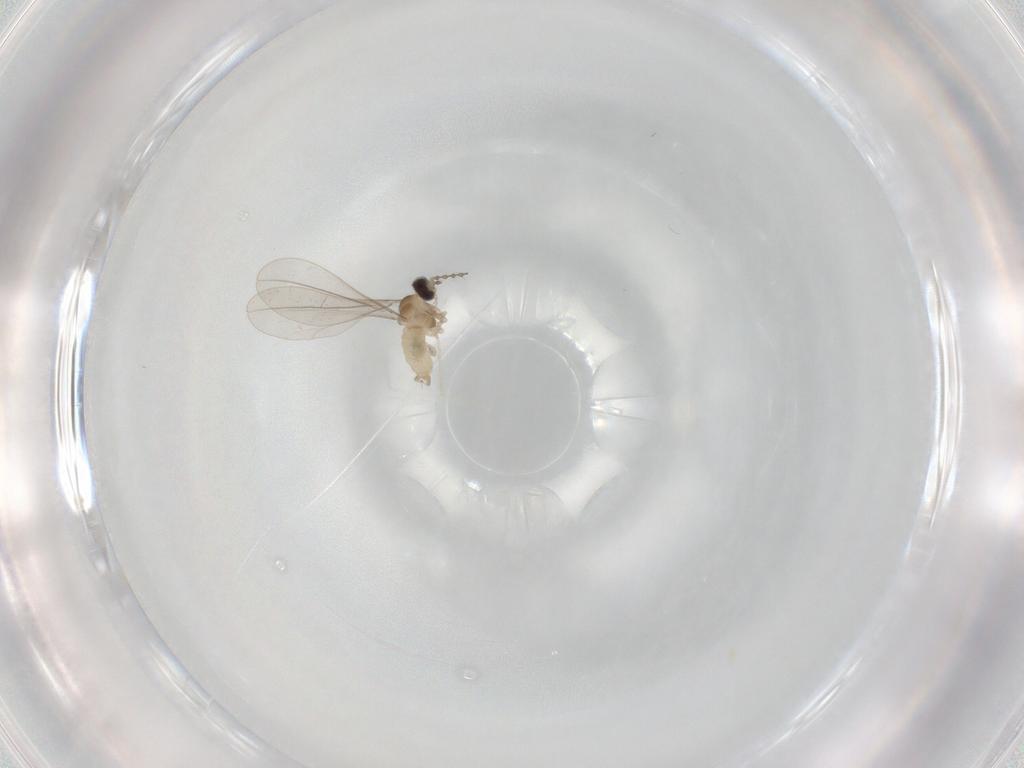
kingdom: Animalia
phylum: Arthropoda
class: Insecta
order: Diptera
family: Cecidomyiidae
